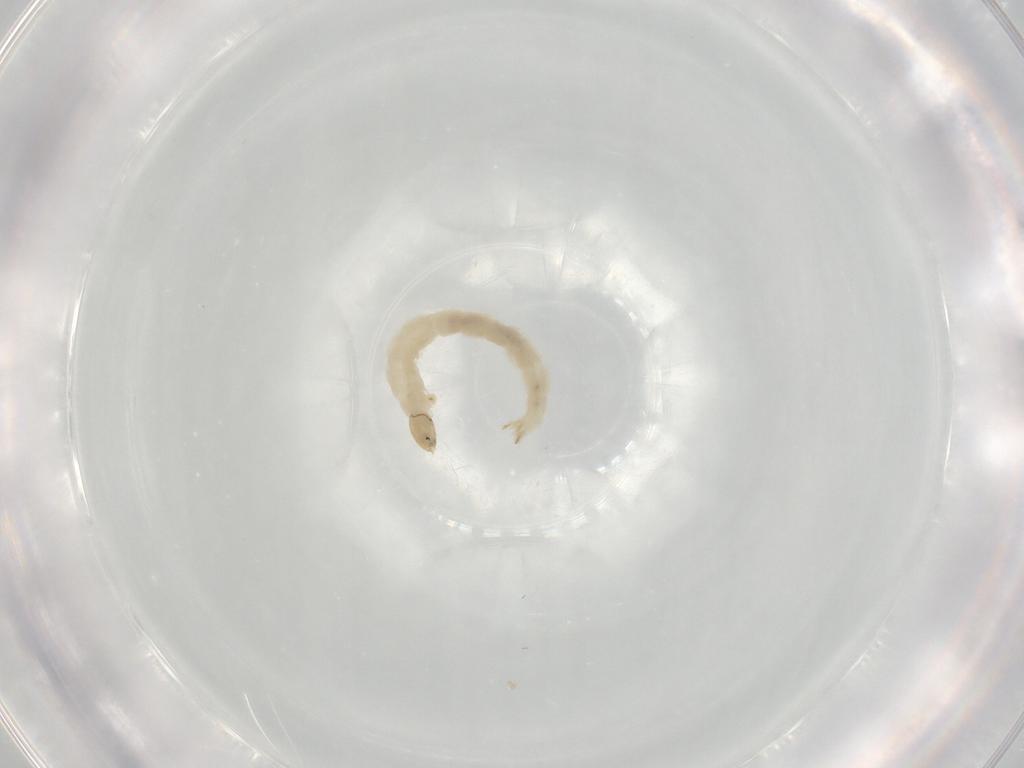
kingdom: Animalia
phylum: Arthropoda
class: Insecta
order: Diptera
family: Chironomidae
